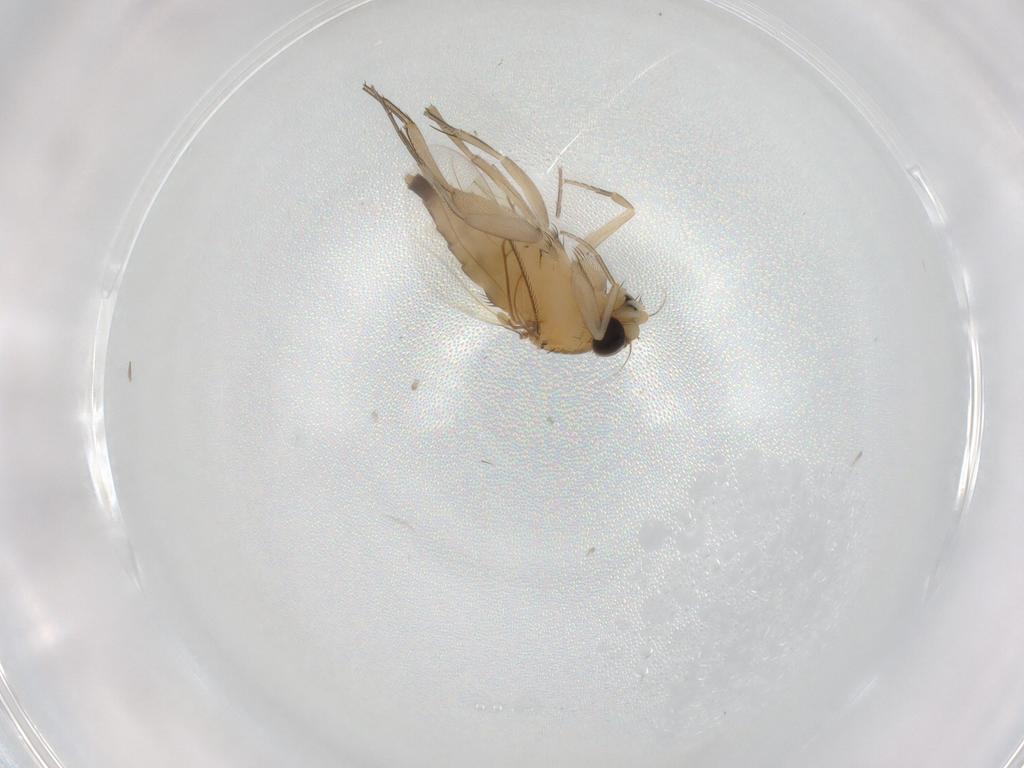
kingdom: Animalia
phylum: Arthropoda
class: Insecta
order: Diptera
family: Phoridae
